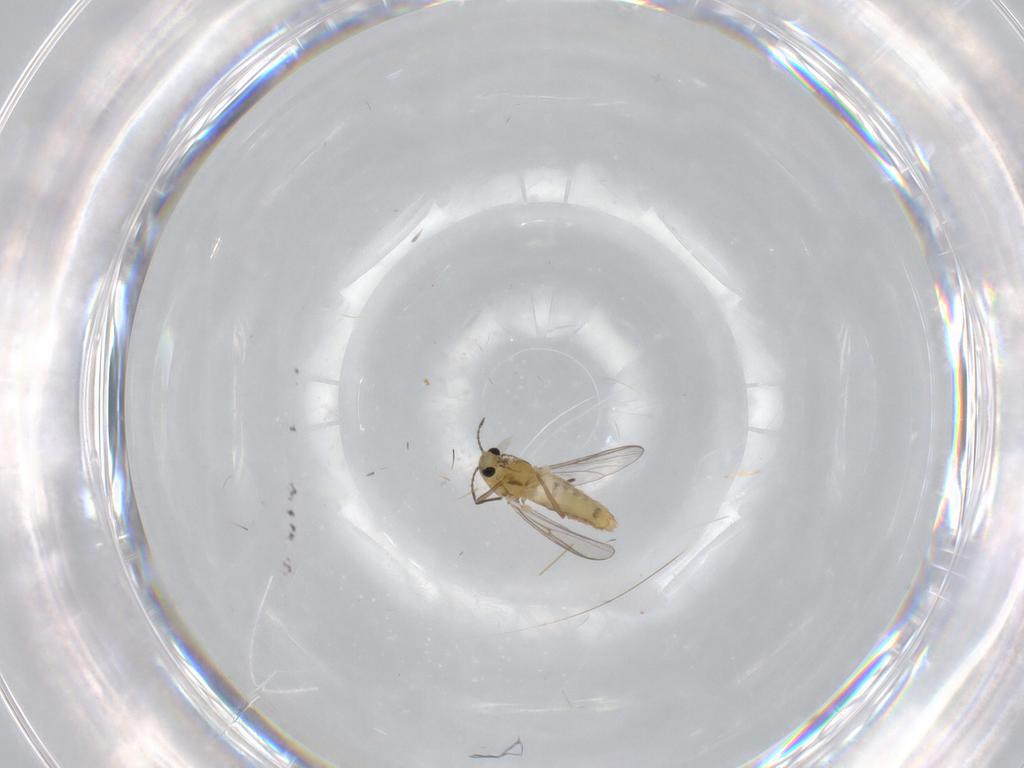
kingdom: Animalia
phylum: Arthropoda
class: Insecta
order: Diptera
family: Chironomidae
